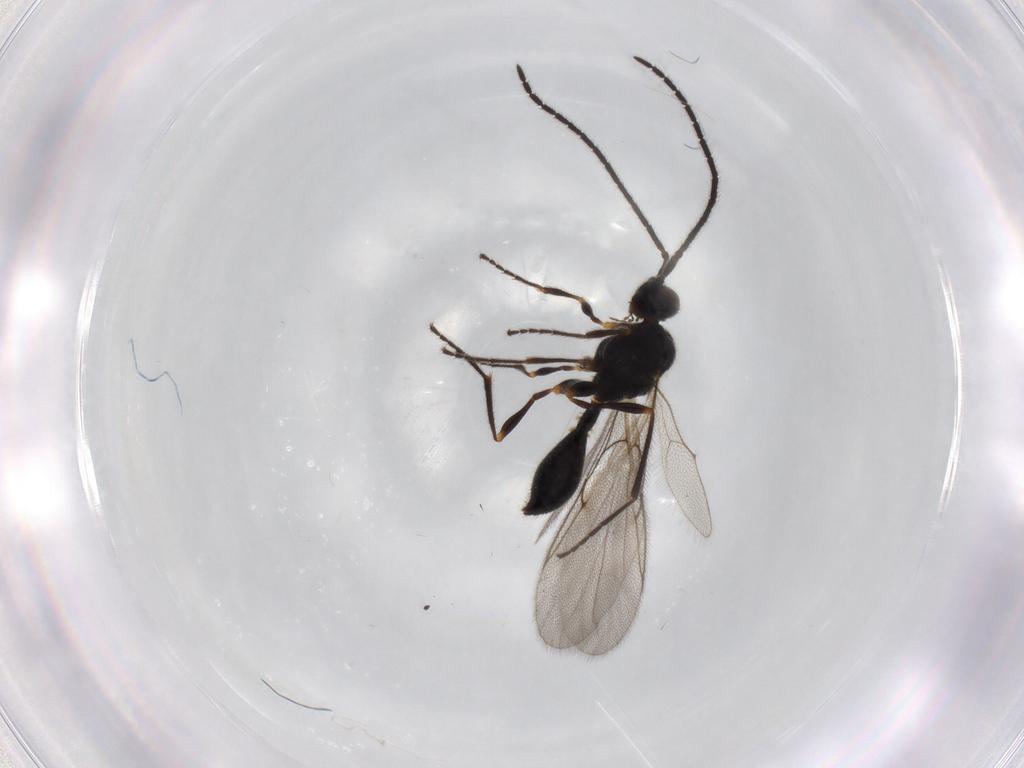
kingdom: Animalia
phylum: Arthropoda
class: Insecta
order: Hymenoptera
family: Diapriidae
